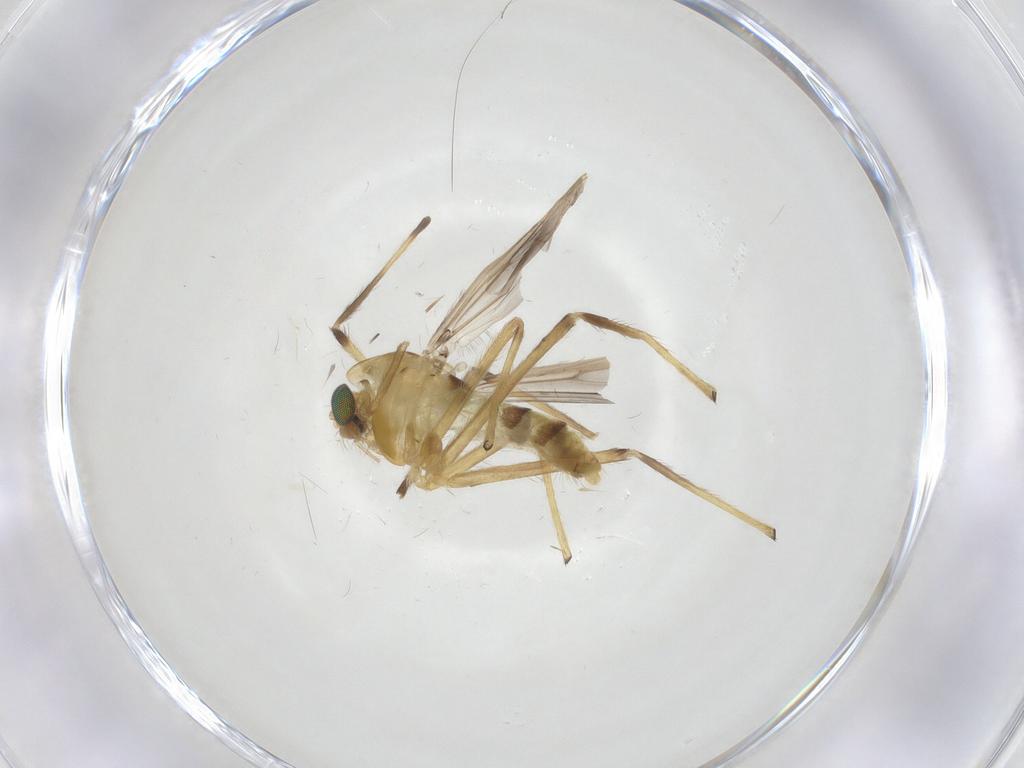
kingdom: Animalia
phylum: Arthropoda
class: Insecta
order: Diptera
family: Chironomidae
